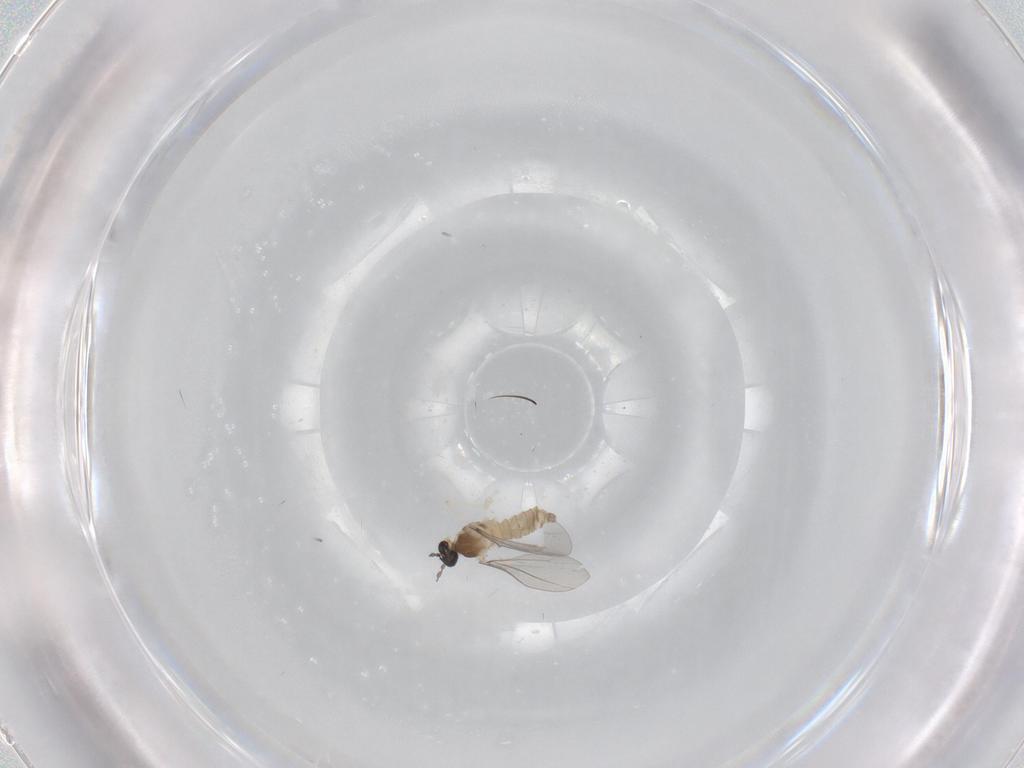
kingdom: Animalia
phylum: Arthropoda
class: Insecta
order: Diptera
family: Cecidomyiidae
